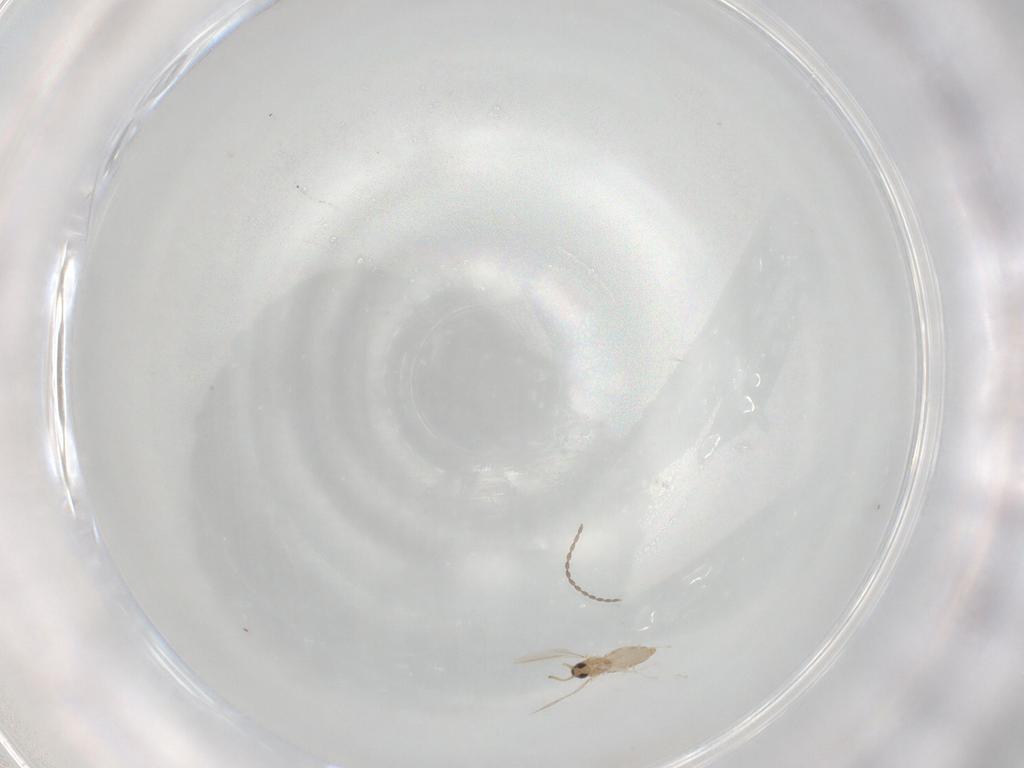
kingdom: Animalia
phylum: Arthropoda
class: Insecta
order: Diptera
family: Cecidomyiidae
